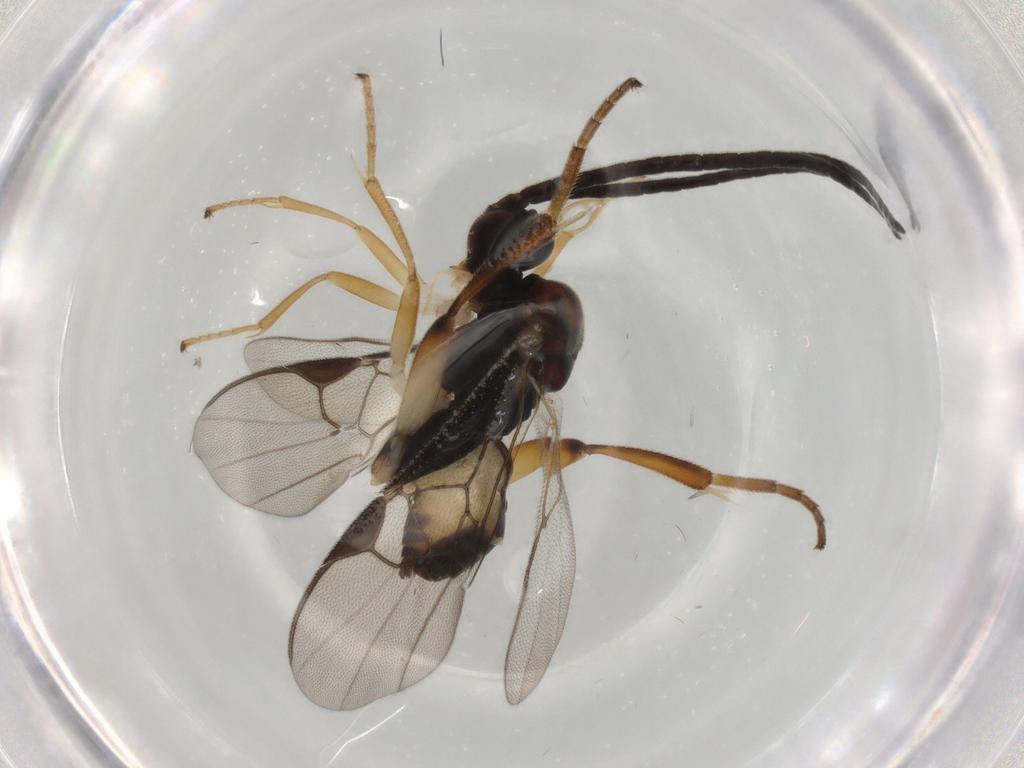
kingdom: Animalia
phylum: Arthropoda
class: Insecta
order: Hymenoptera
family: Braconidae
